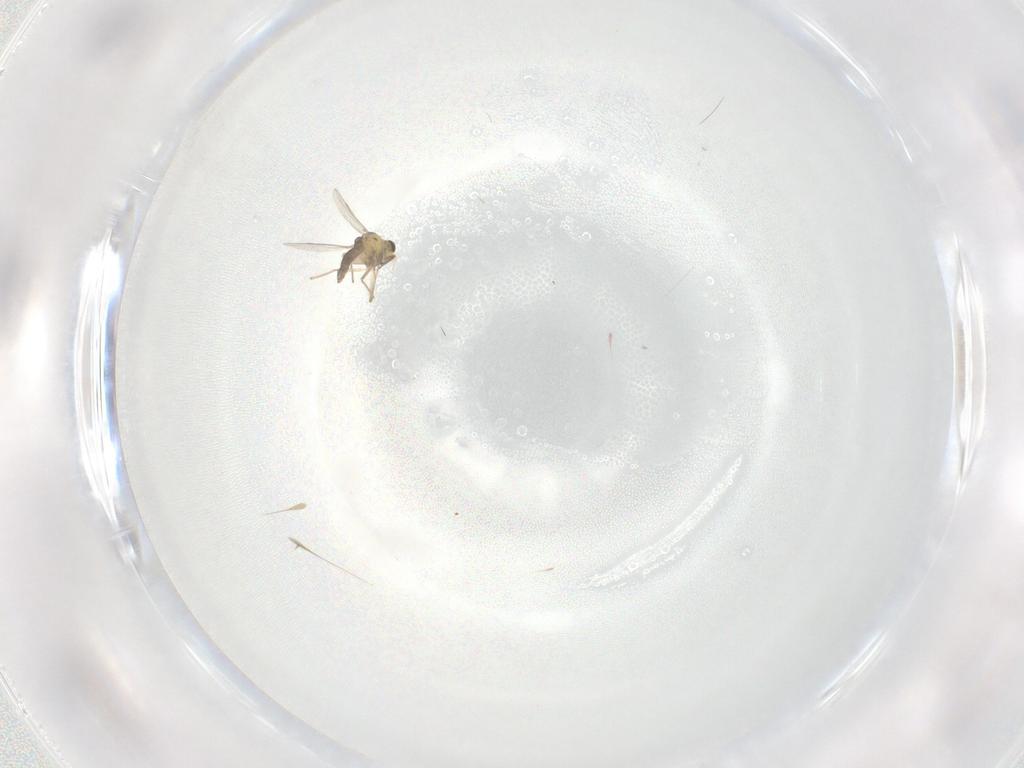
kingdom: Animalia
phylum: Arthropoda
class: Insecta
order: Diptera
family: Chironomidae
